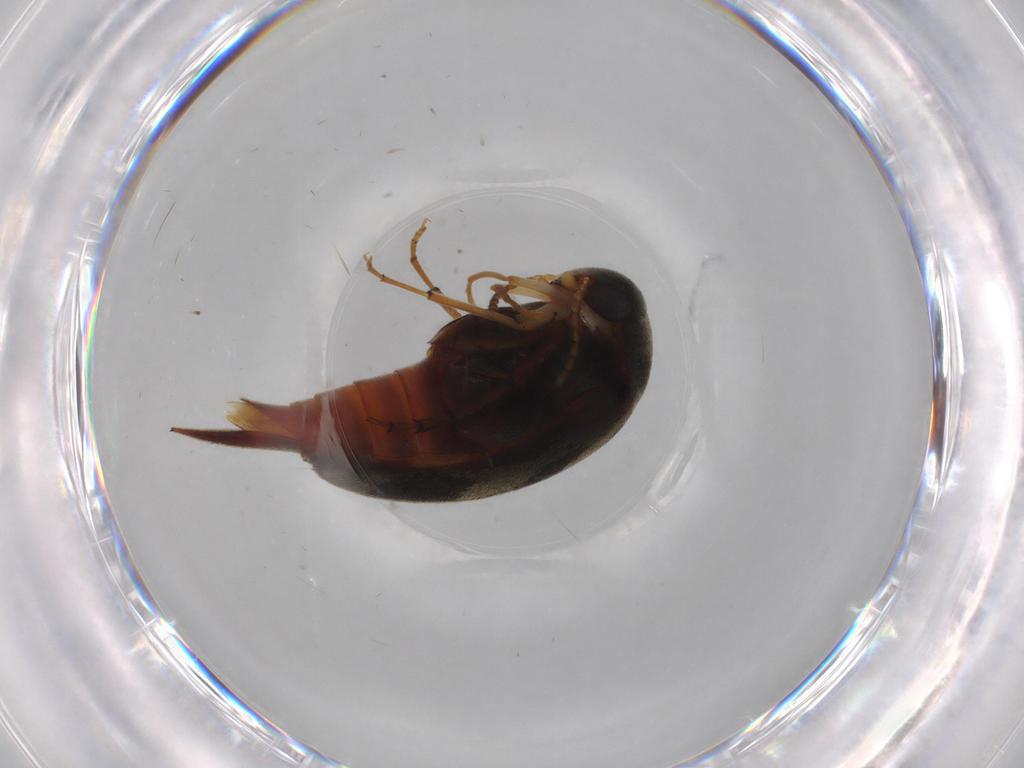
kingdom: Animalia
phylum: Arthropoda
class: Insecta
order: Coleoptera
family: Mordellidae
